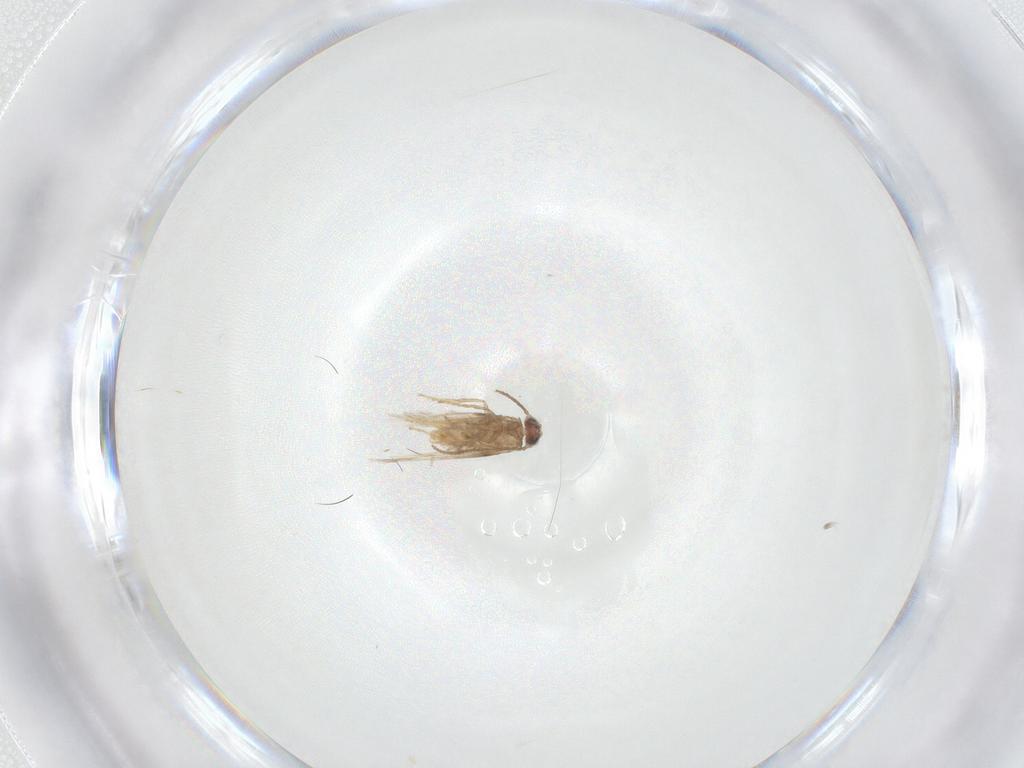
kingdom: Animalia
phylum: Arthropoda
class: Insecta
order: Lepidoptera
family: Nepticulidae
